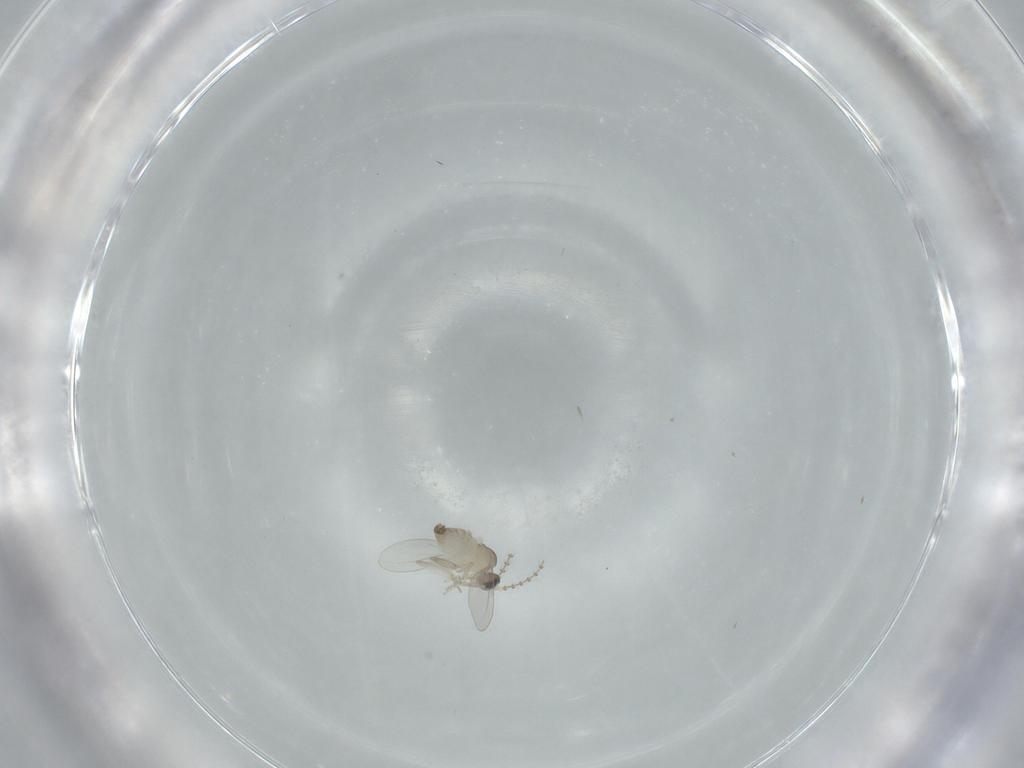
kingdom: Animalia
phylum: Arthropoda
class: Insecta
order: Diptera
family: Cecidomyiidae
